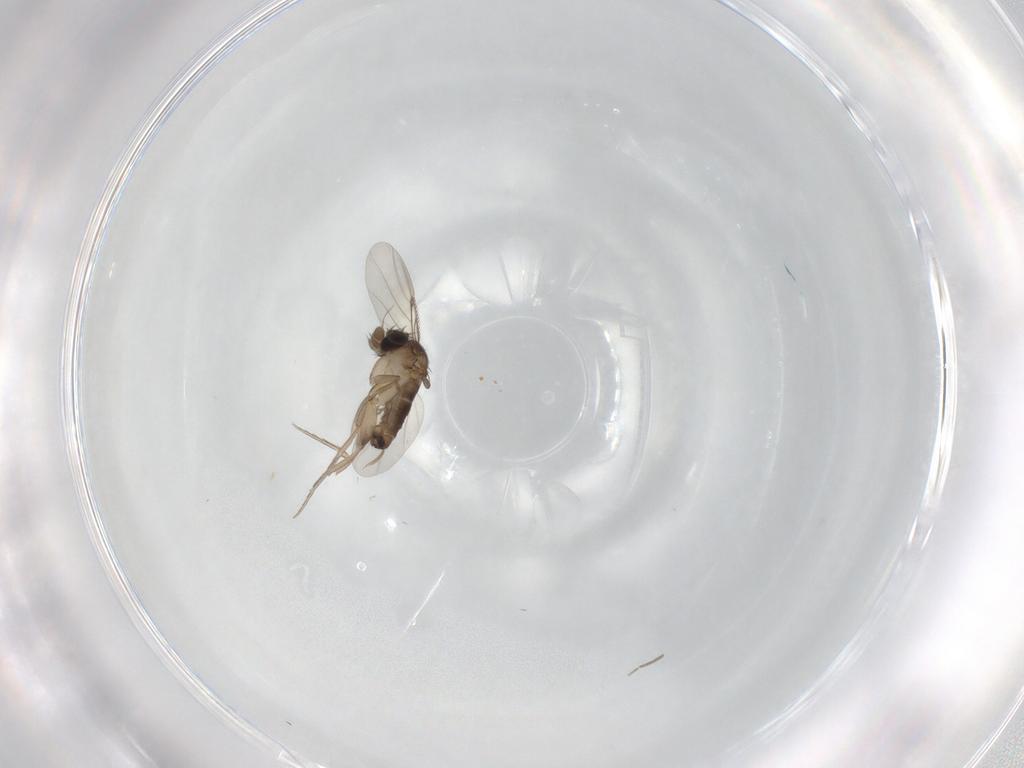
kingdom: Animalia
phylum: Arthropoda
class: Insecta
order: Diptera
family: Phoridae
